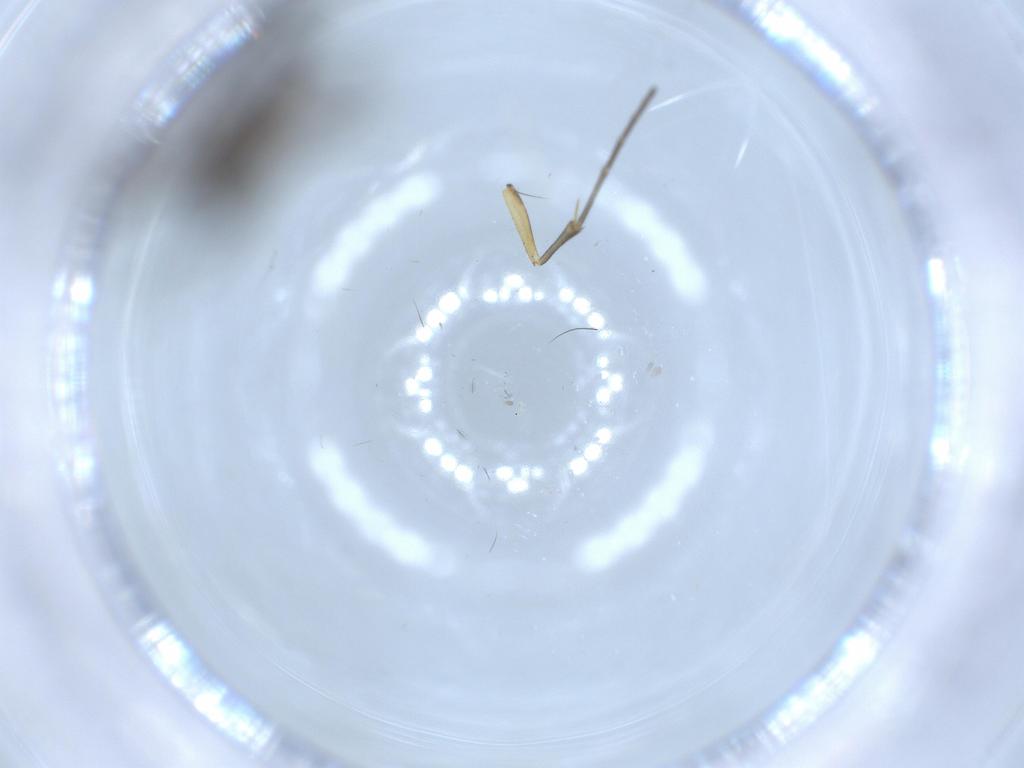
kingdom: Animalia
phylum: Arthropoda
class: Insecta
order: Diptera
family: Sciaridae
